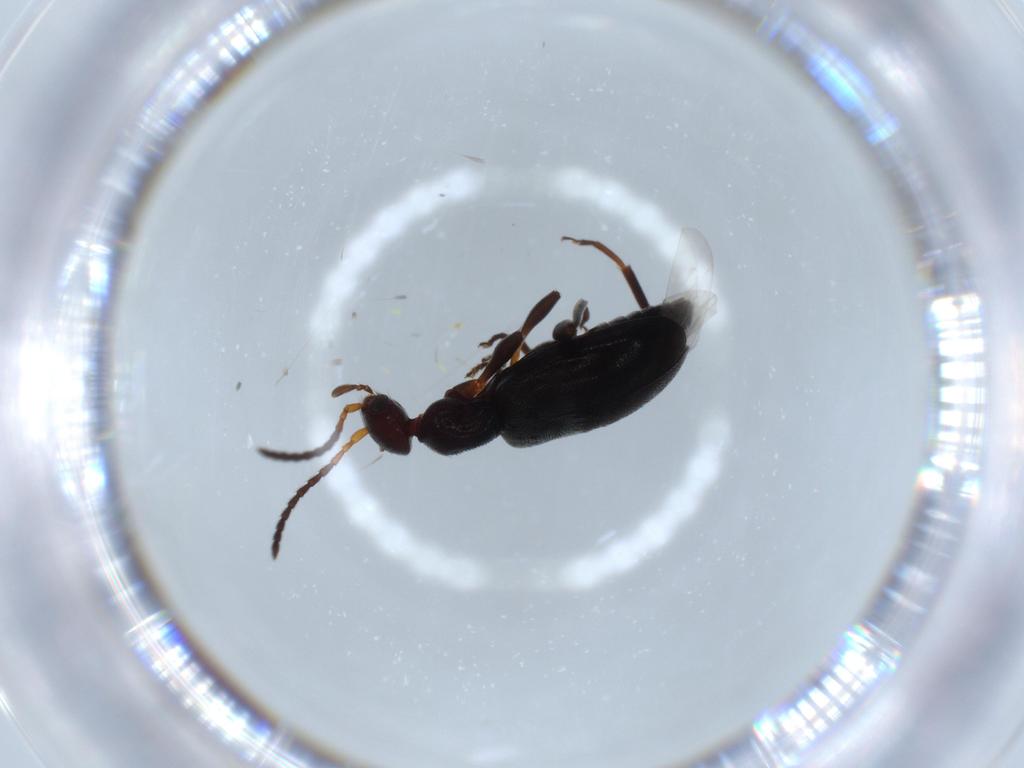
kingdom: Animalia
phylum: Arthropoda
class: Insecta
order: Coleoptera
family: Anthicidae
